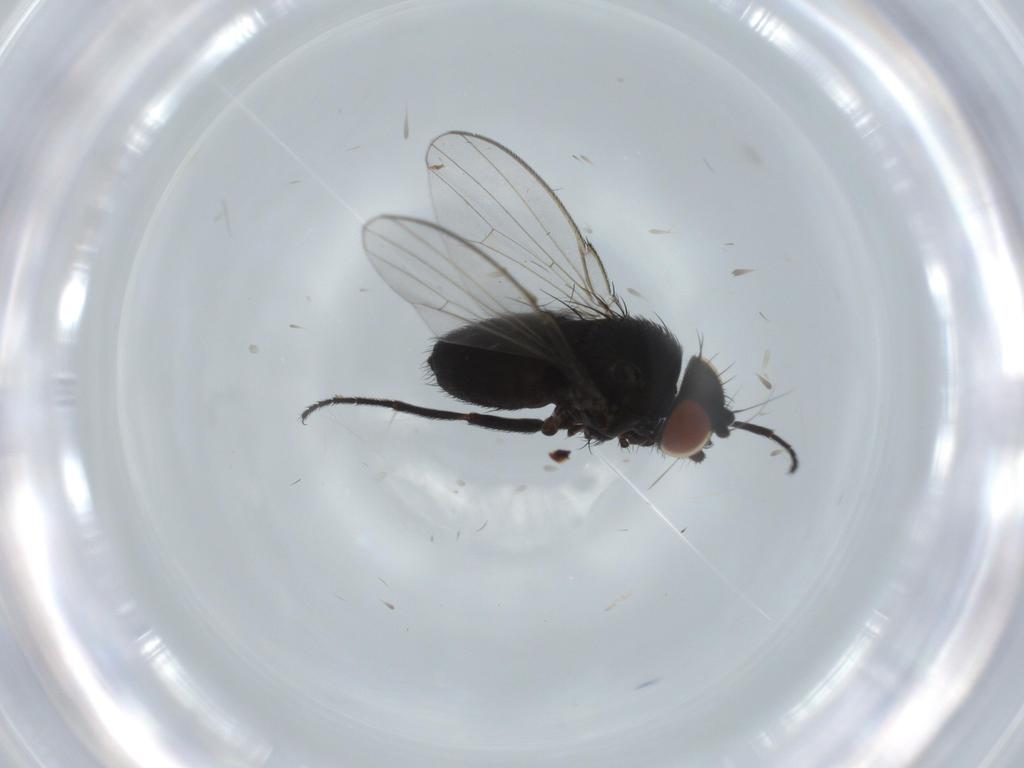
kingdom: Animalia
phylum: Arthropoda
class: Insecta
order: Diptera
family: Milichiidae
